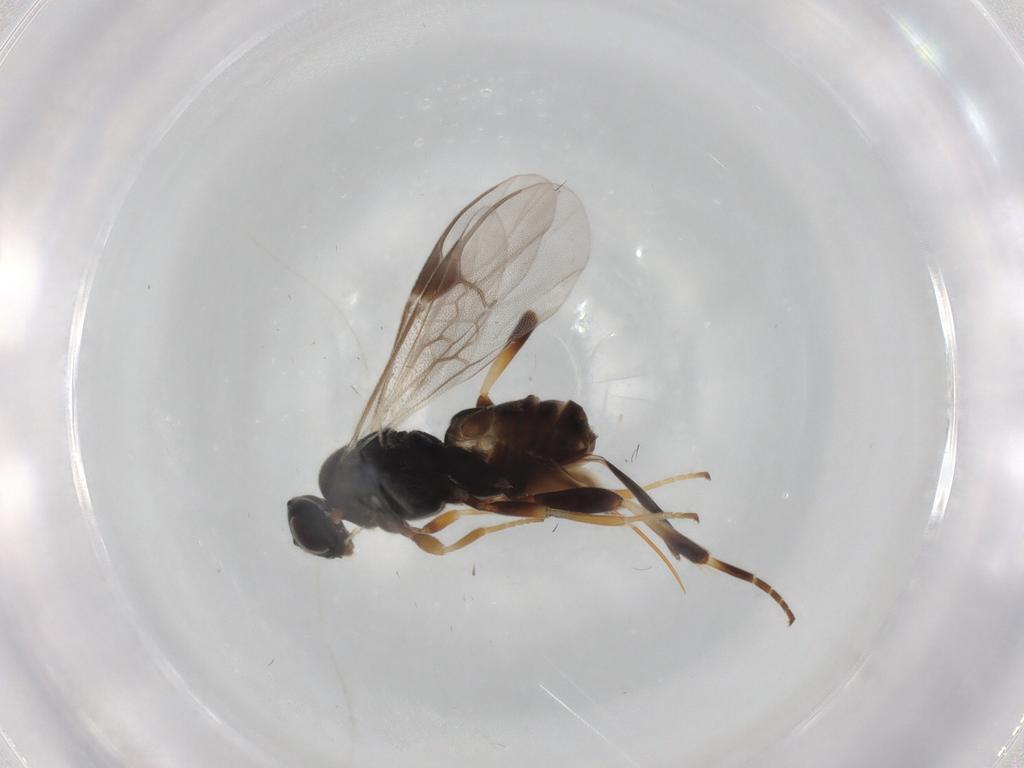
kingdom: Animalia
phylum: Arthropoda
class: Insecta
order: Hymenoptera
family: Braconidae
